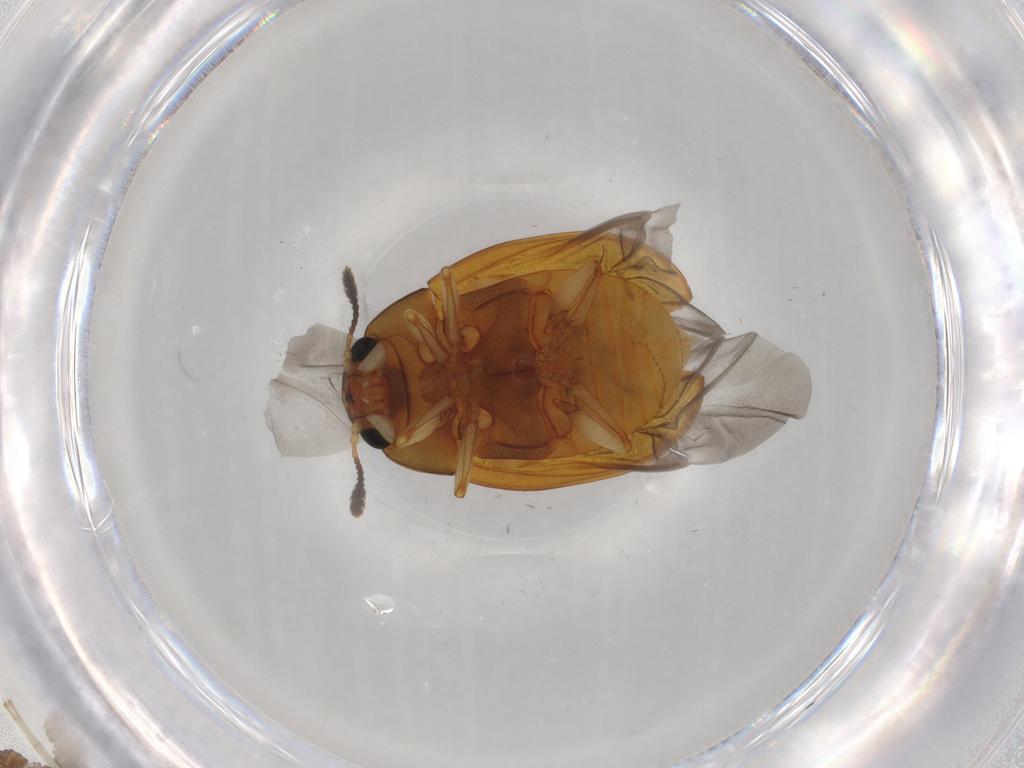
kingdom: Animalia
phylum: Arthropoda
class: Insecta
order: Coleoptera
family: Erotylidae
